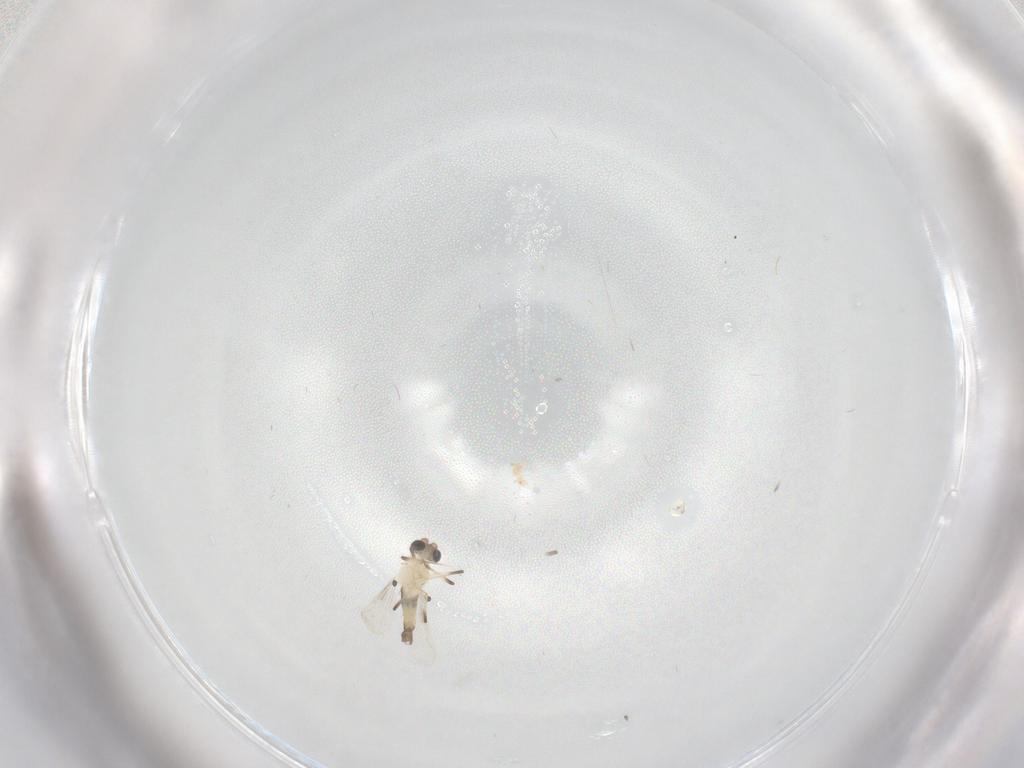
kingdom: Animalia
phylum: Arthropoda
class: Insecta
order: Diptera
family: Chironomidae
